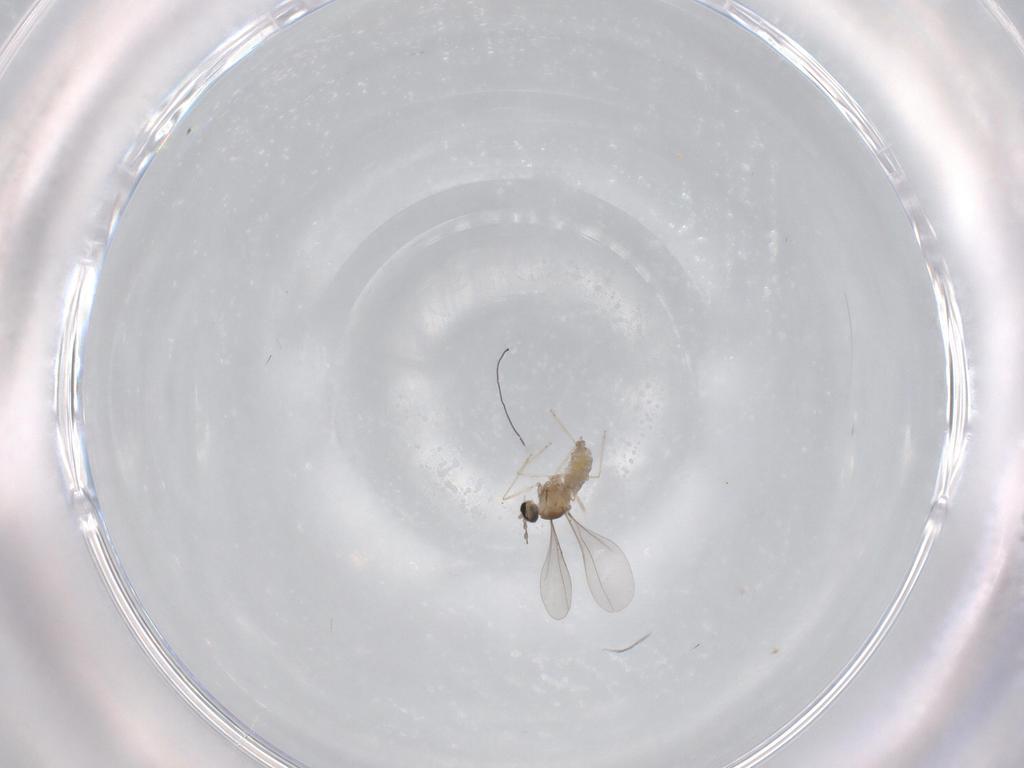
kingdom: Animalia
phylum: Arthropoda
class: Insecta
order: Diptera
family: Cecidomyiidae
